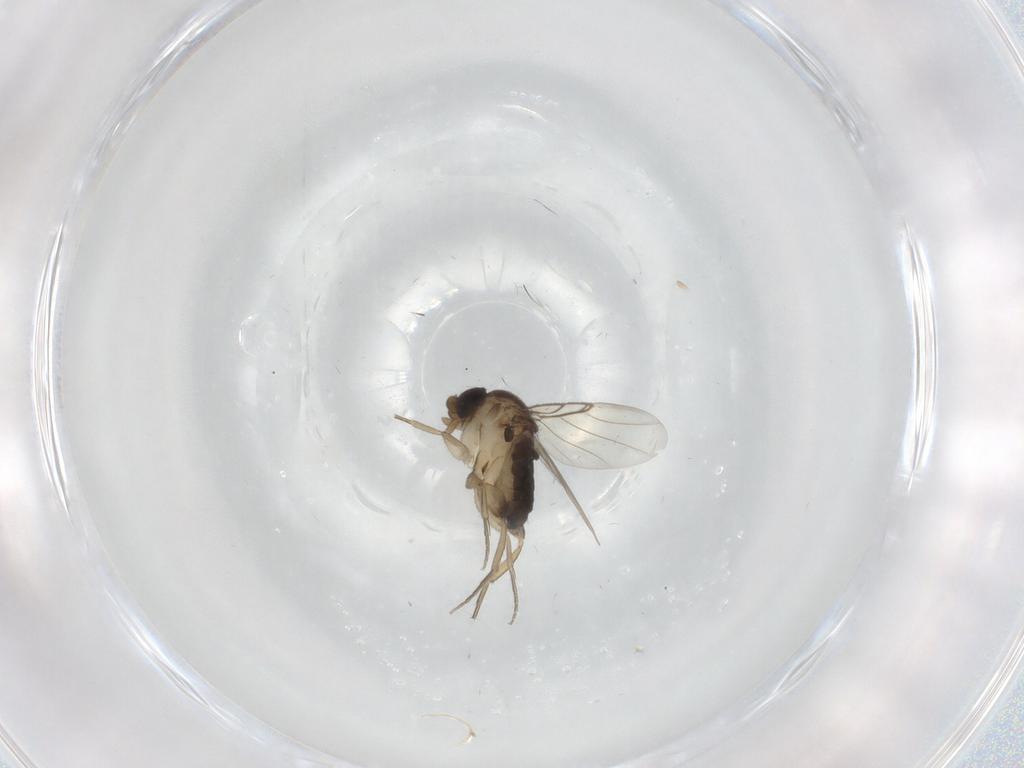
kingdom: Animalia
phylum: Arthropoda
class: Insecta
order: Diptera
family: Phoridae
